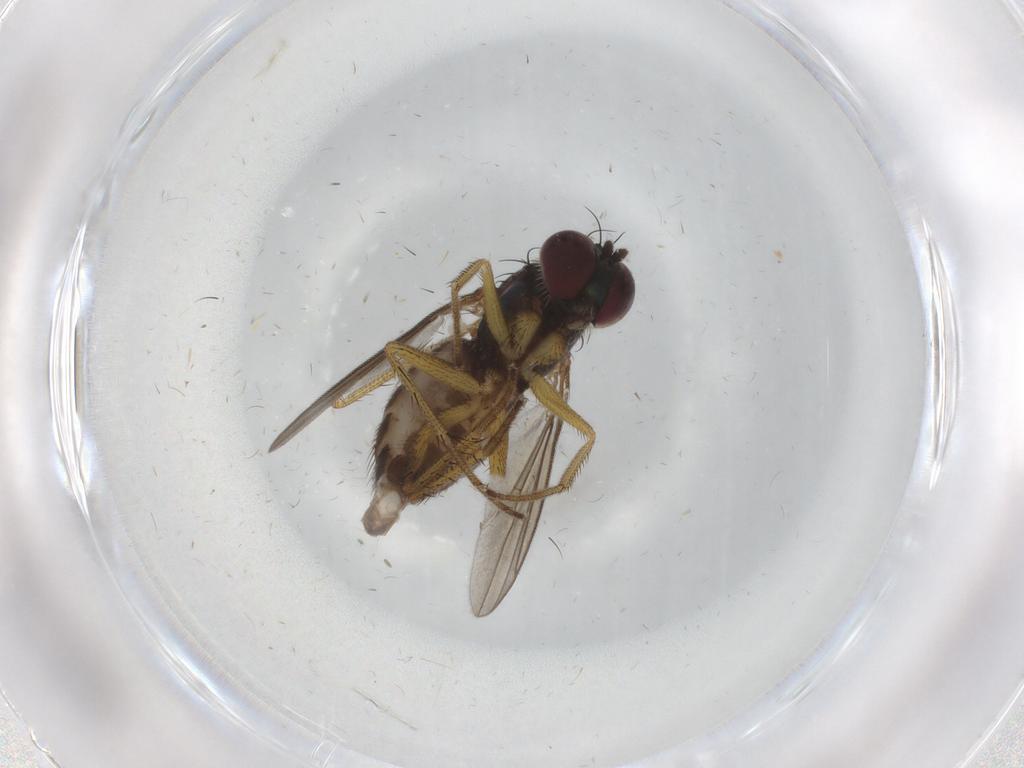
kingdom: Animalia
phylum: Arthropoda
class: Insecta
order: Diptera
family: Dolichopodidae
